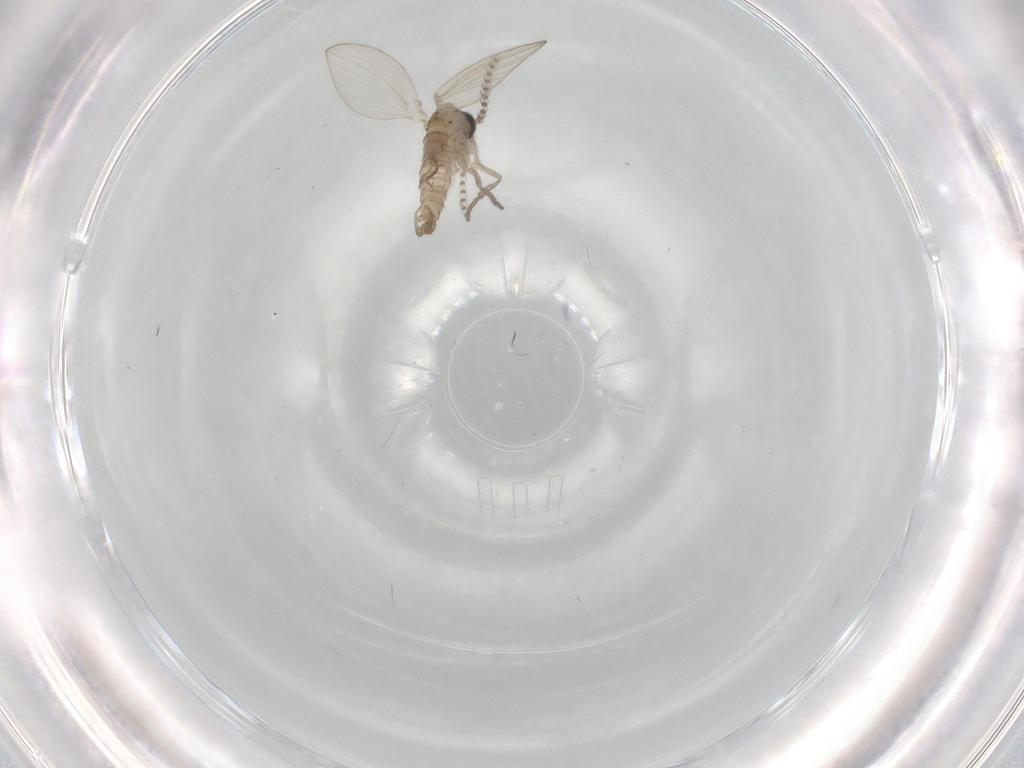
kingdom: Animalia
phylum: Arthropoda
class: Insecta
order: Diptera
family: Psychodidae
